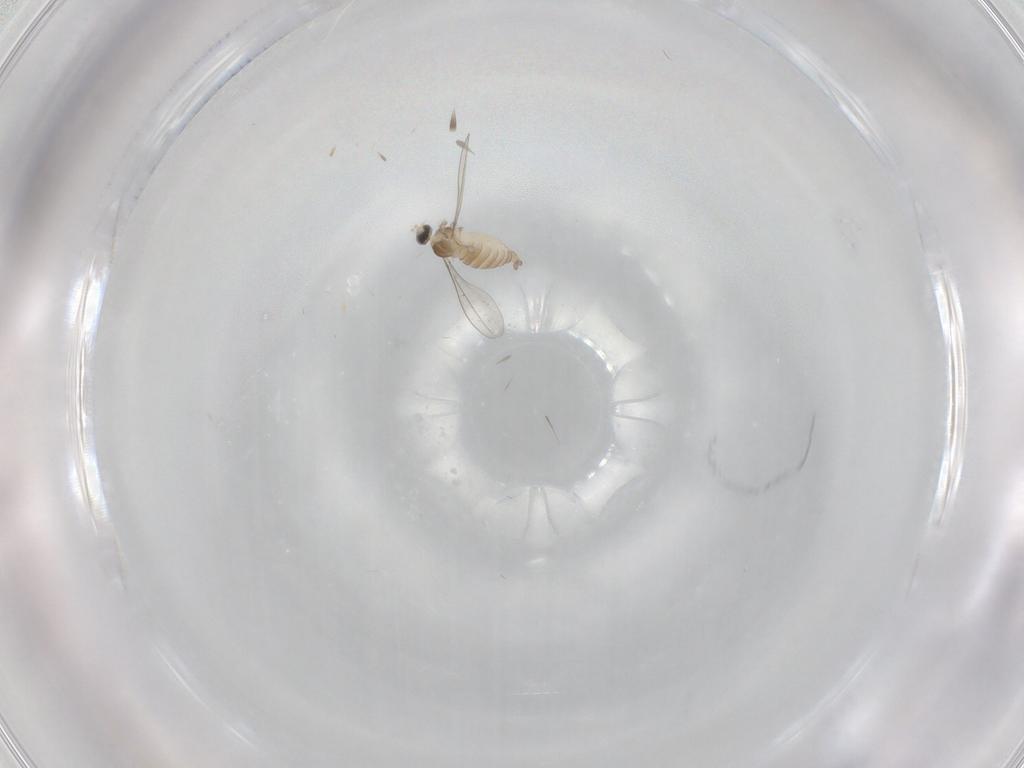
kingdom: Animalia
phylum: Arthropoda
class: Insecta
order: Diptera
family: Cecidomyiidae
